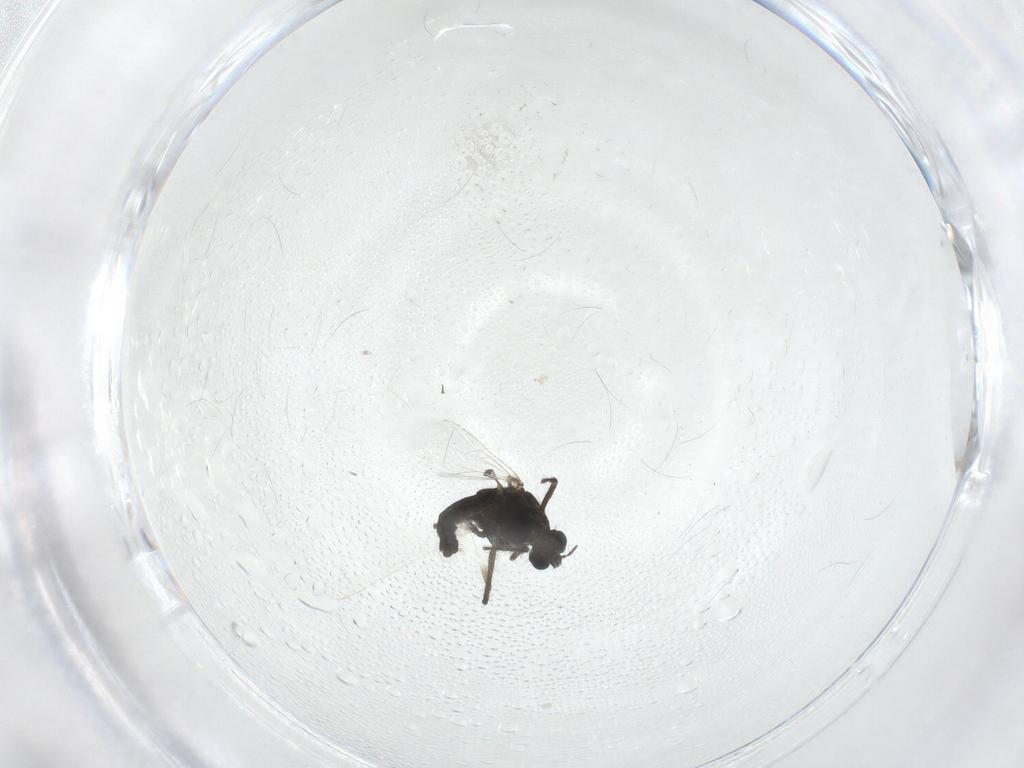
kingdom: Animalia
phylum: Arthropoda
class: Insecta
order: Diptera
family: Chironomidae
